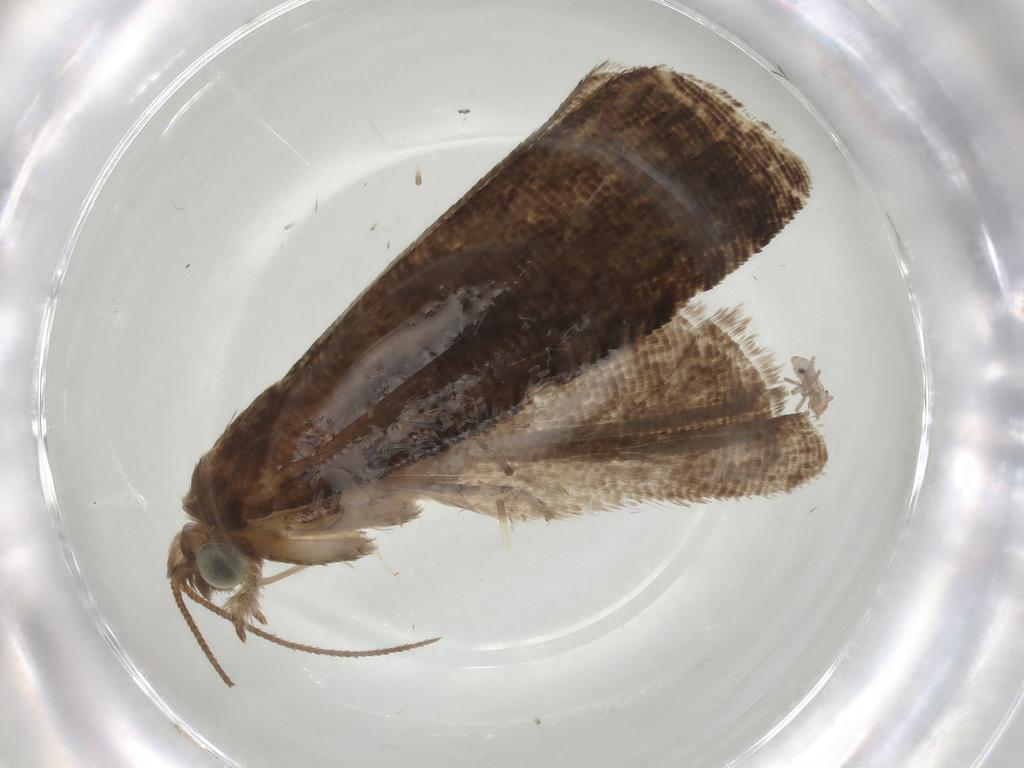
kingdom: Animalia
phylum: Arthropoda
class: Insecta
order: Lepidoptera
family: Tortricidae
